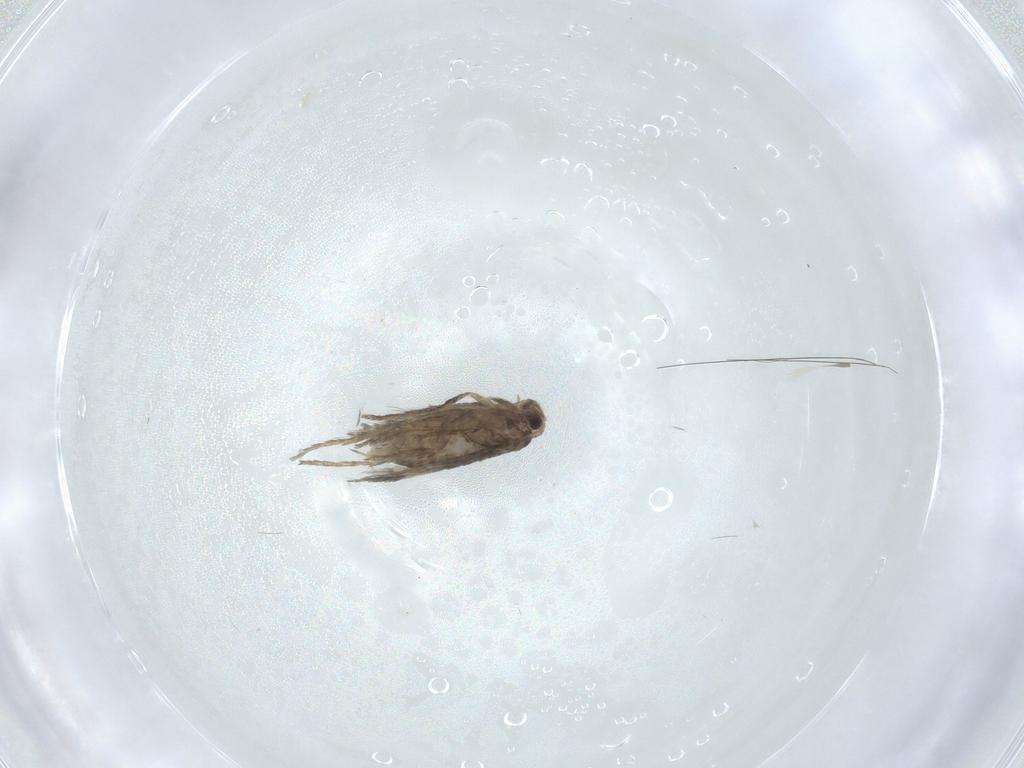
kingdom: Animalia
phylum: Arthropoda
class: Insecta
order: Lepidoptera
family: Nepticulidae
